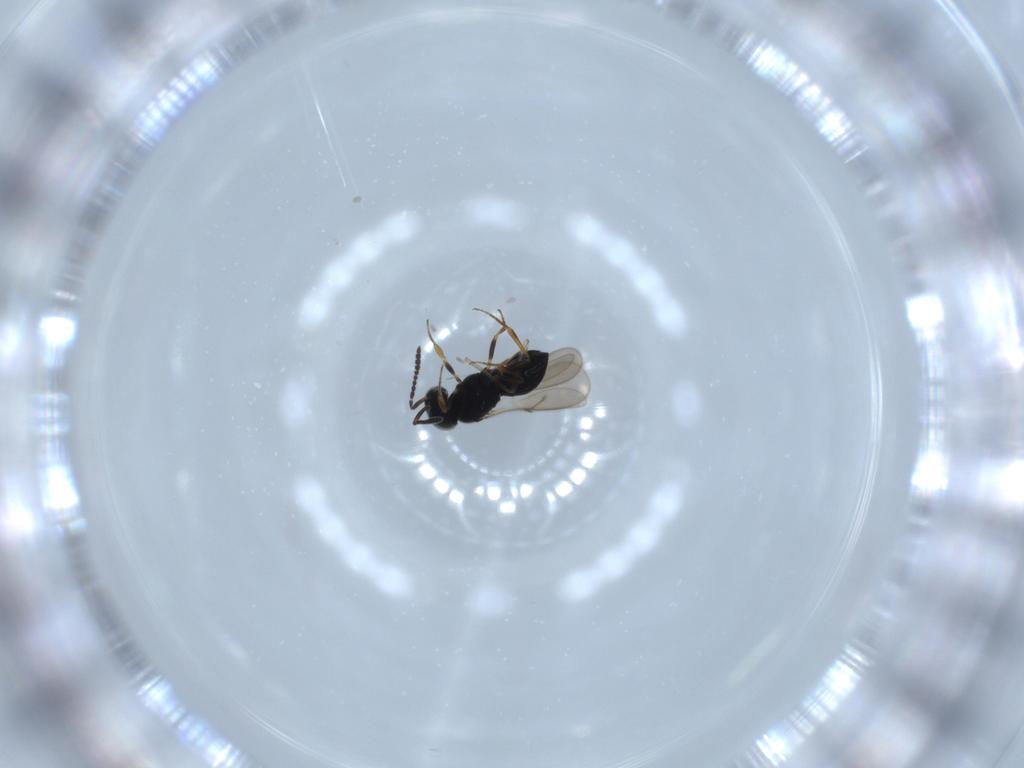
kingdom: Animalia
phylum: Arthropoda
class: Insecta
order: Hymenoptera
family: Scelionidae
